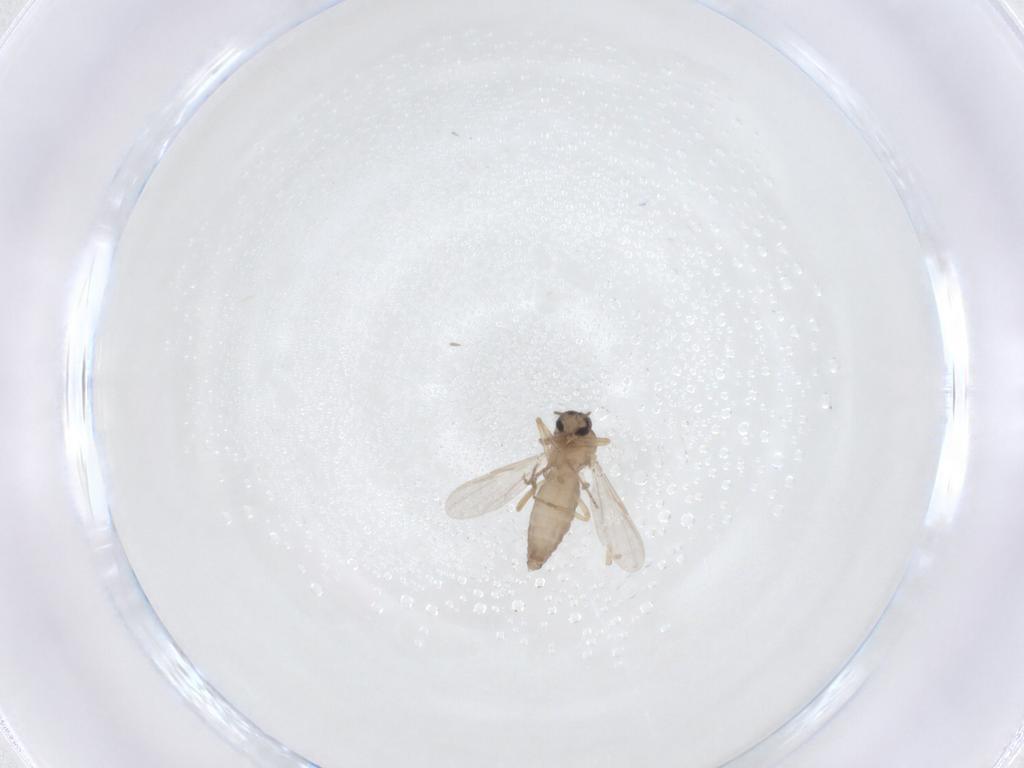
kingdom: Animalia
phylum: Arthropoda
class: Insecta
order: Diptera
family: Ceratopogonidae
